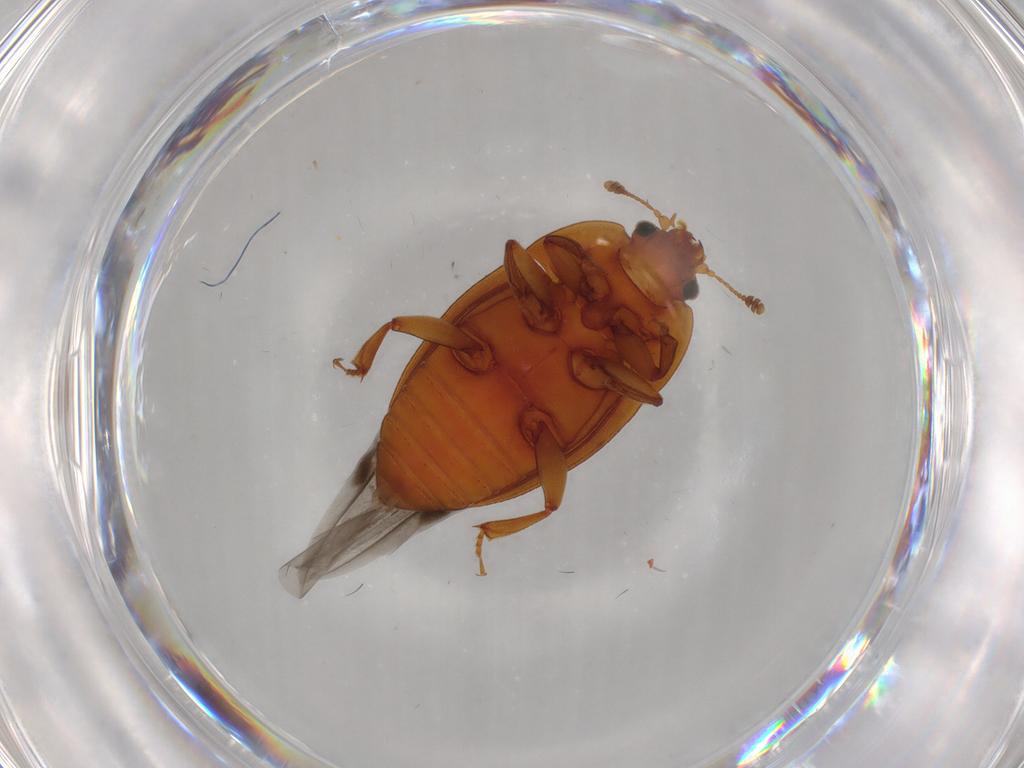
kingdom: Animalia
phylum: Arthropoda
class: Insecta
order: Coleoptera
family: Nitidulidae
